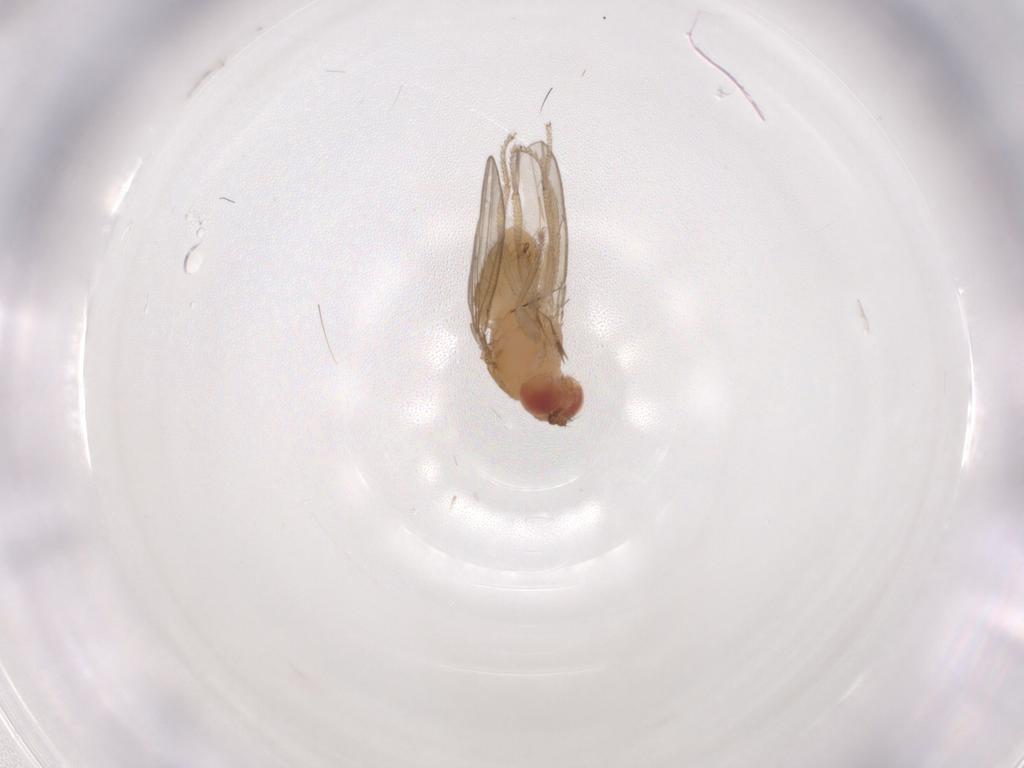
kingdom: Animalia
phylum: Arthropoda
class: Insecta
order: Diptera
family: Drosophilidae
